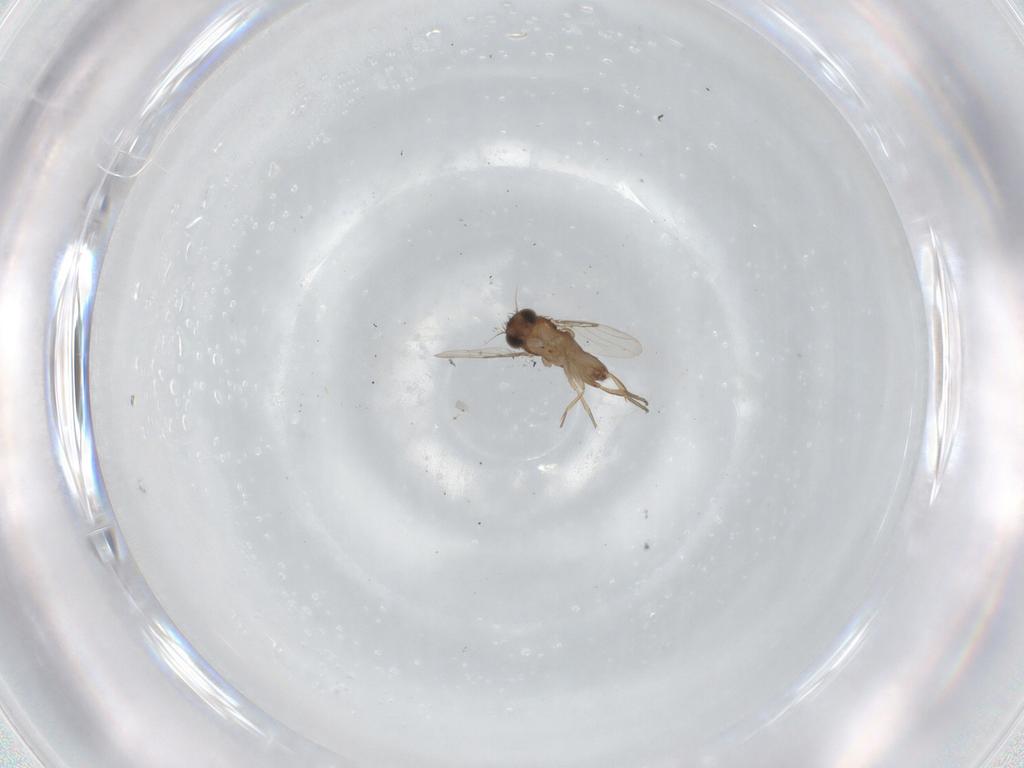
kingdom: Animalia
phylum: Arthropoda
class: Insecta
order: Diptera
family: Phoridae
